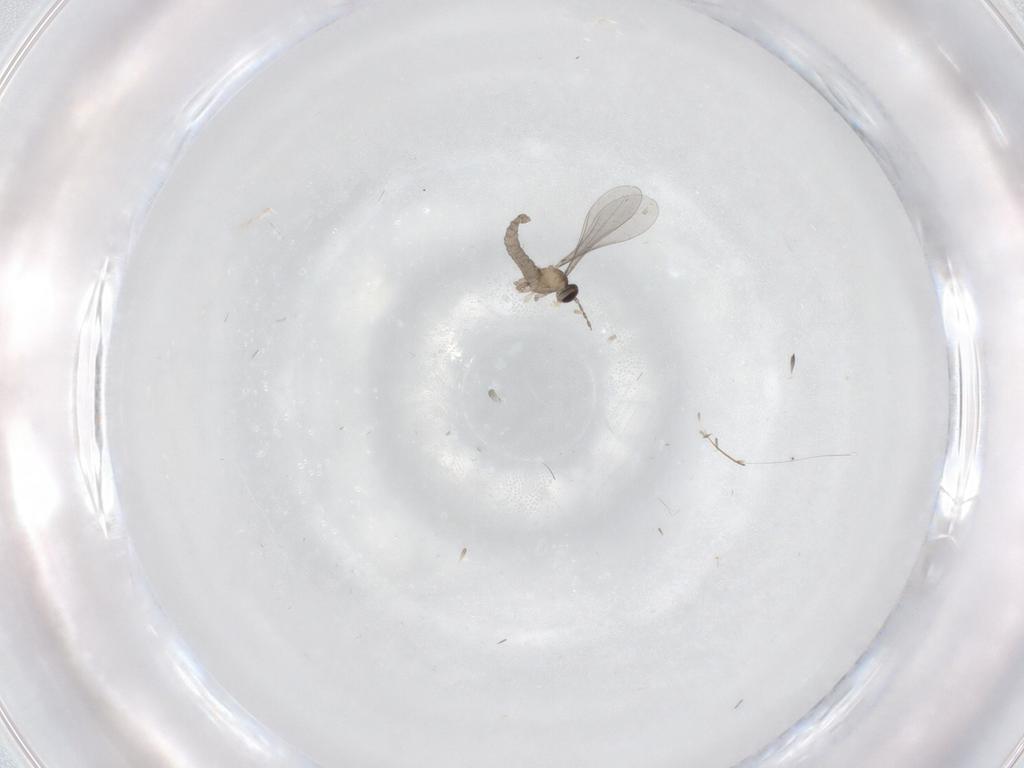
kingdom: Animalia
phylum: Arthropoda
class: Insecta
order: Diptera
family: Cecidomyiidae
